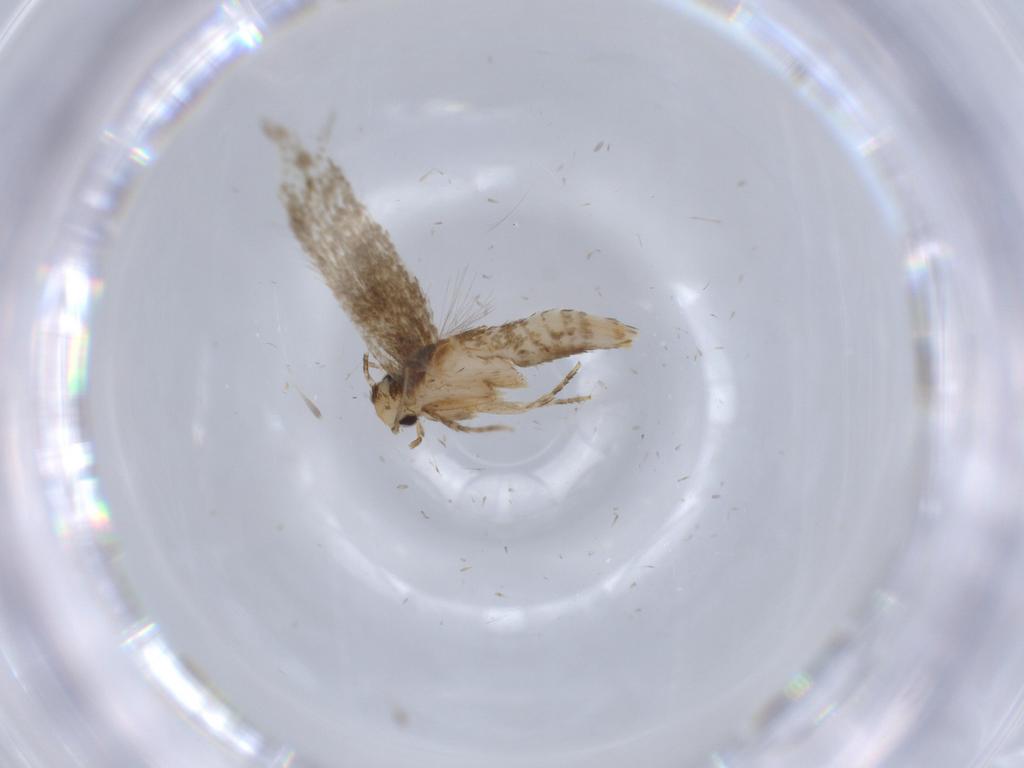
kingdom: Animalia
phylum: Arthropoda
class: Insecta
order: Lepidoptera
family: Tineidae
